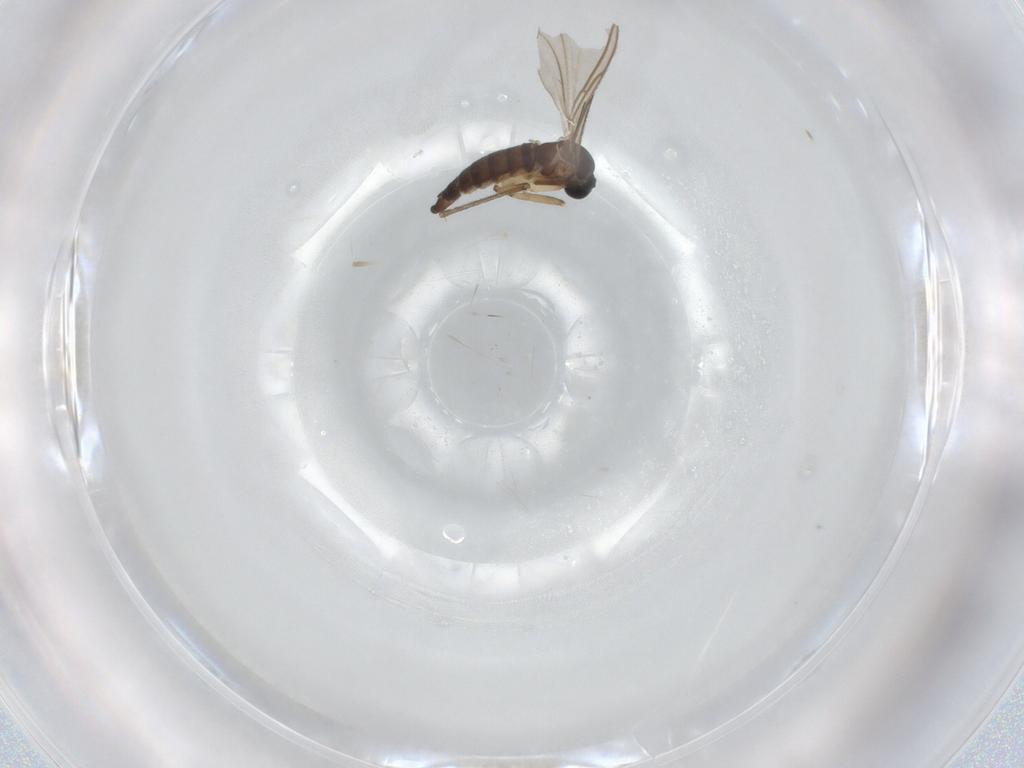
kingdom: Animalia
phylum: Arthropoda
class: Insecta
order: Diptera
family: Sciaridae
